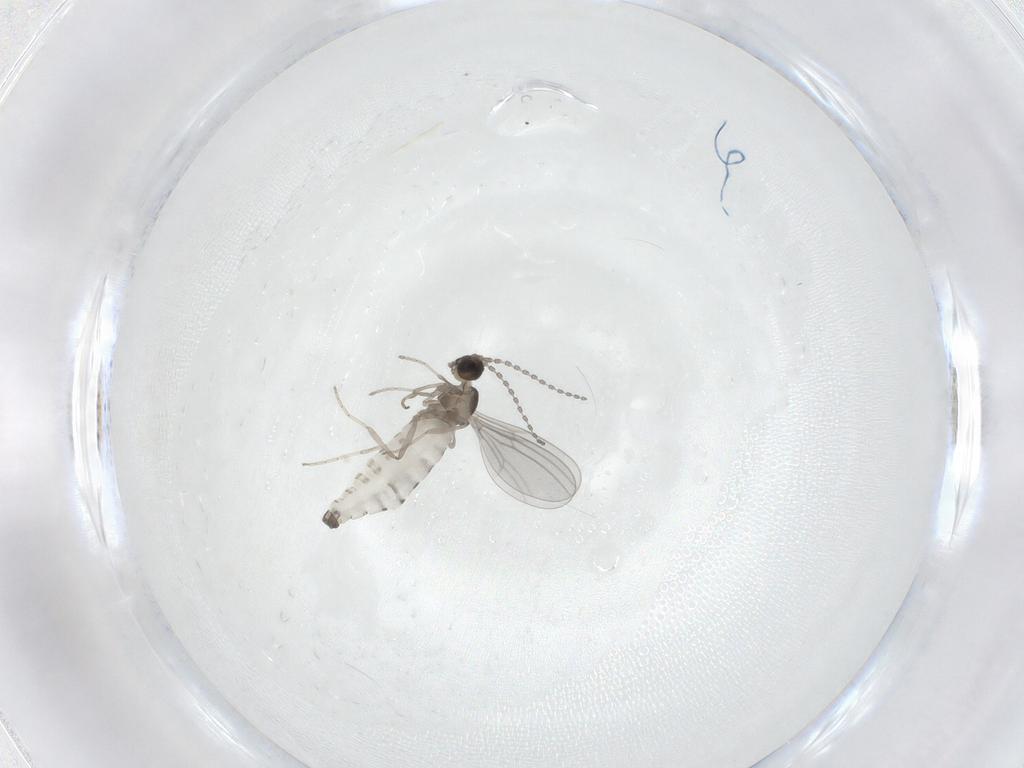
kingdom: Animalia
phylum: Arthropoda
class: Insecta
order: Diptera
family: Cecidomyiidae
